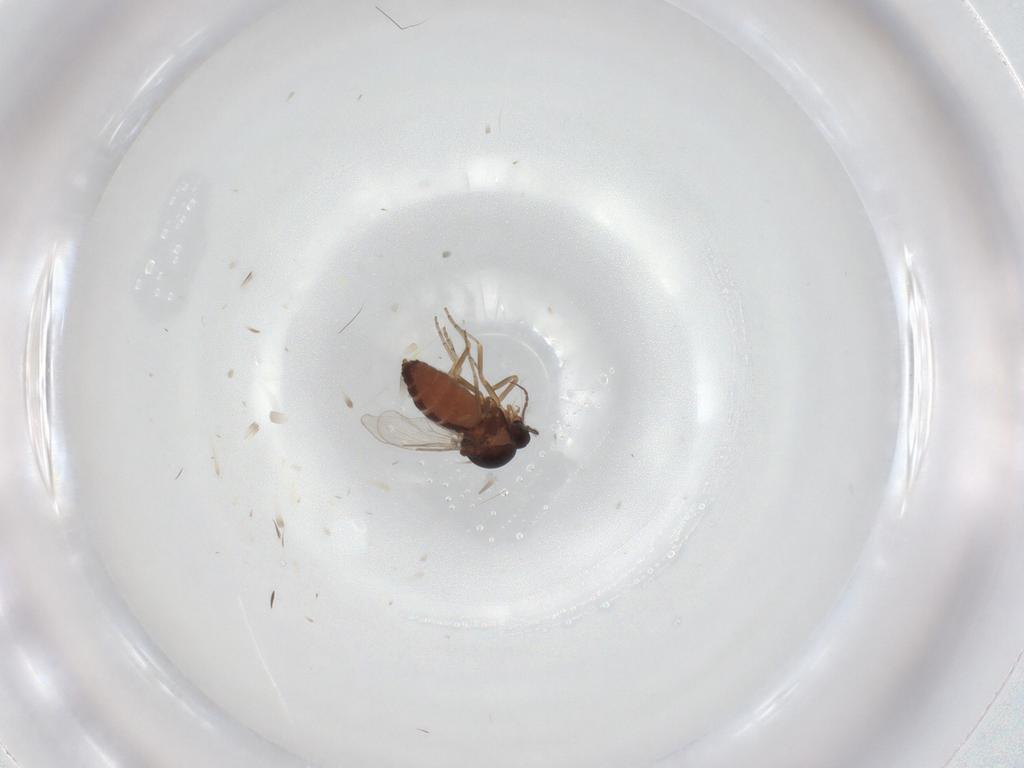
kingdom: Animalia
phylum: Arthropoda
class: Insecta
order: Diptera
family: Ceratopogonidae
